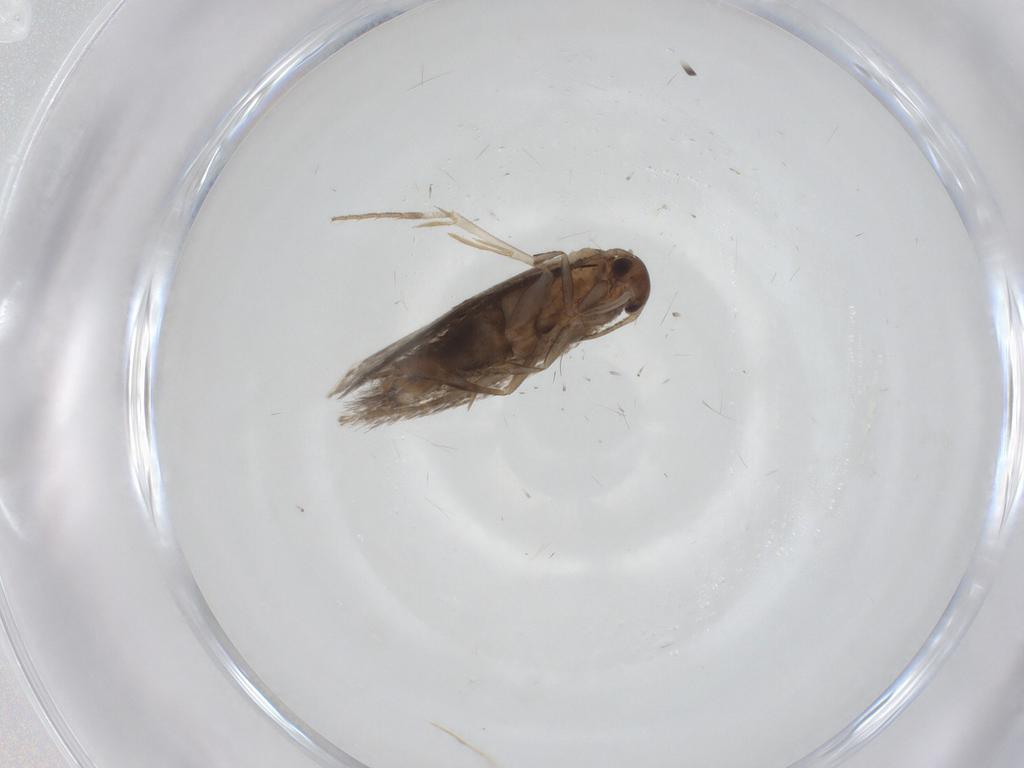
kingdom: Animalia
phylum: Arthropoda
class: Insecta
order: Lepidoptera
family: Elachistidae
